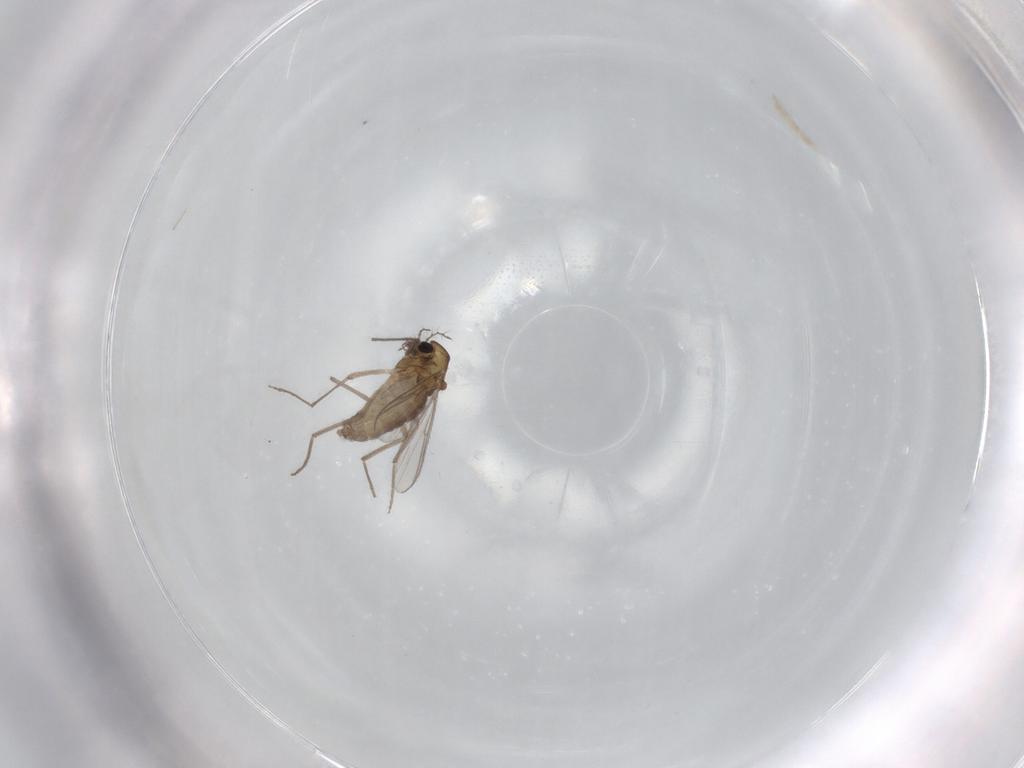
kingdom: Animalia
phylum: Arthropoda
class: Insecta
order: Diptera
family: Chironomidae
